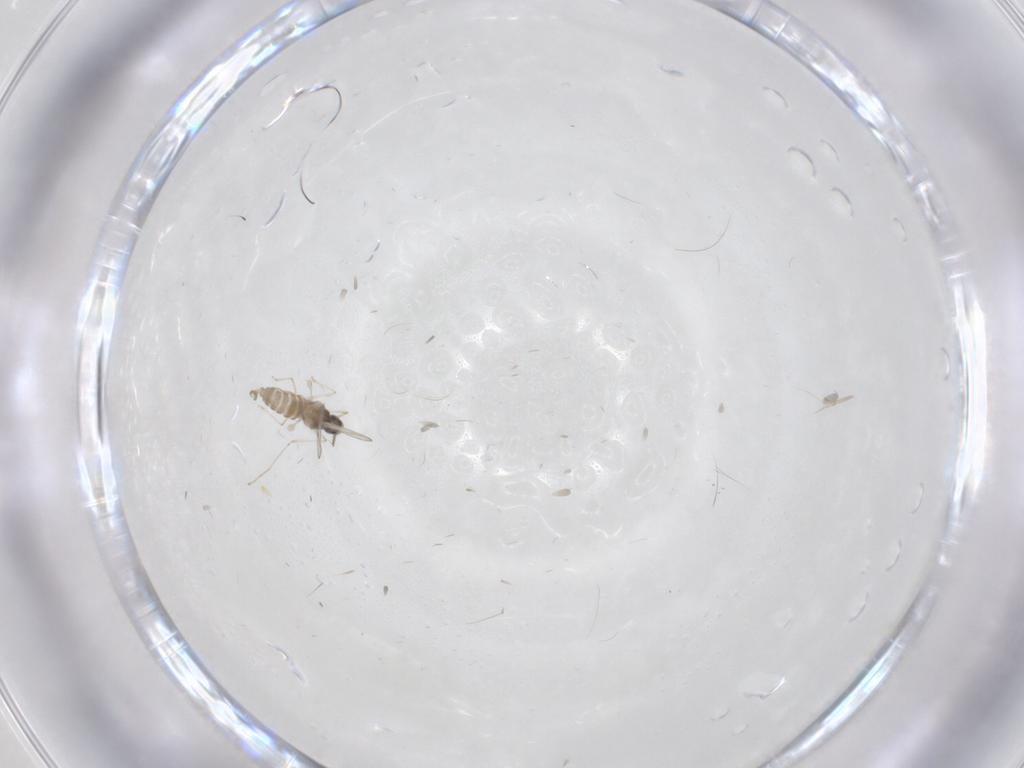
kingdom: Animalia
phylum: Arthropoda
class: Insecta
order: Diptera
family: Cecidomyiidae
